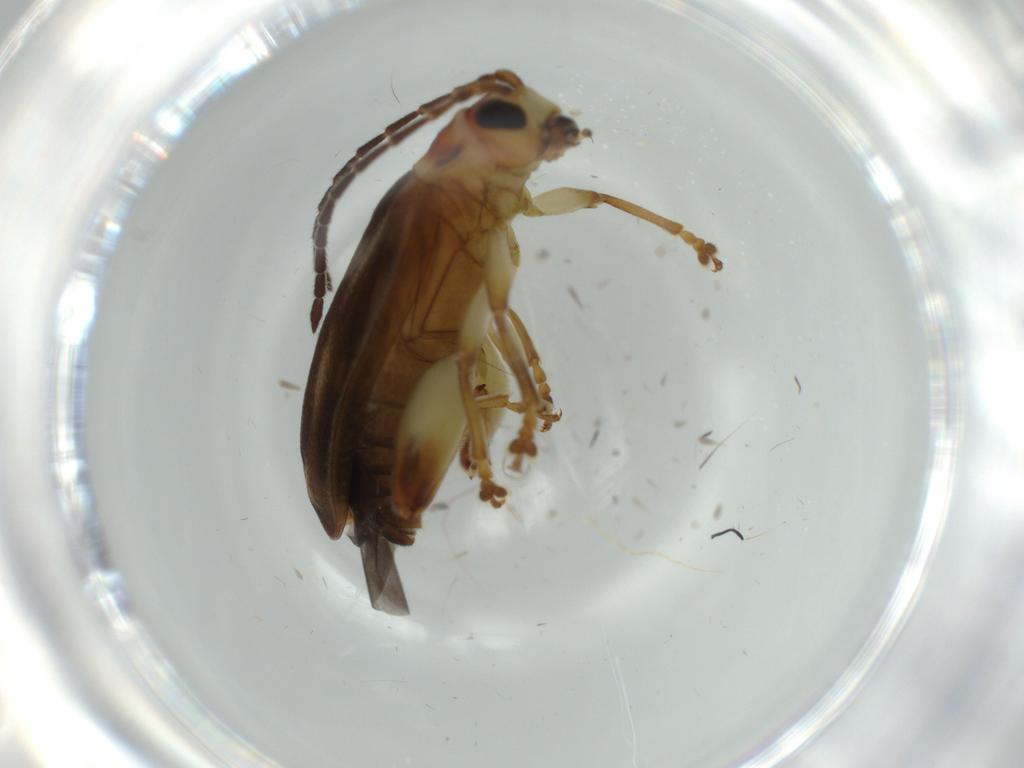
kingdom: Animalia
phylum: Arthropoda
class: Insecta
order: Coleoptera
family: Chrysomelidae
